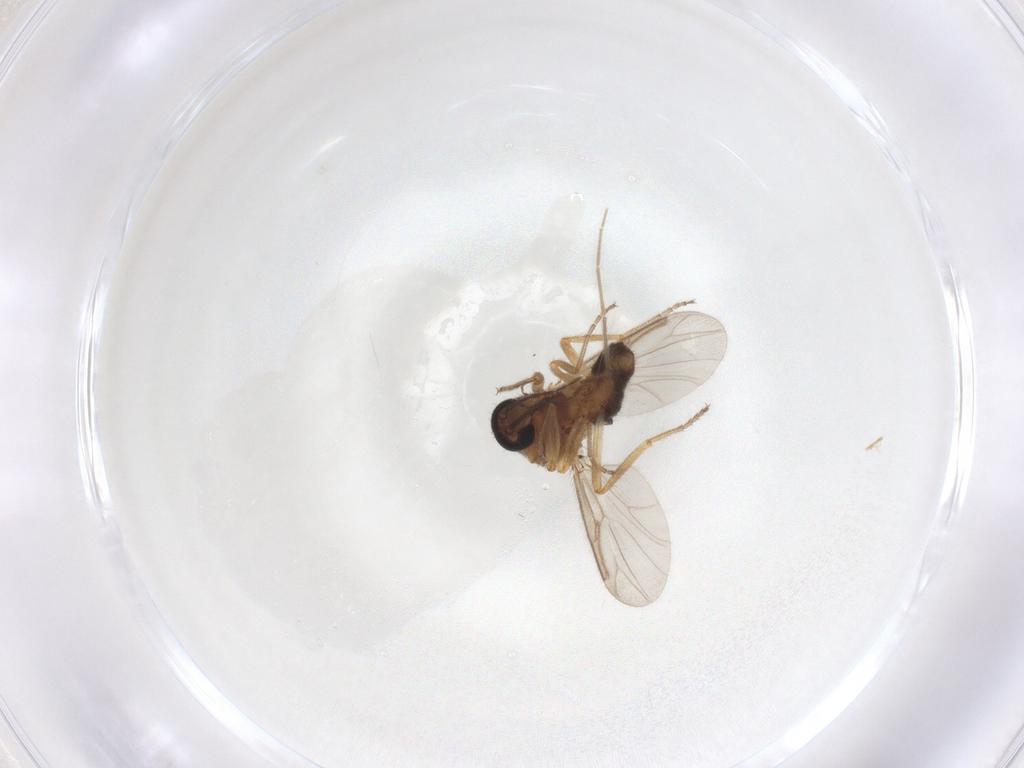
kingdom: Animalia
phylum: Arthropoda
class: Insecta
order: Diptera
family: Ceratopogonidae
